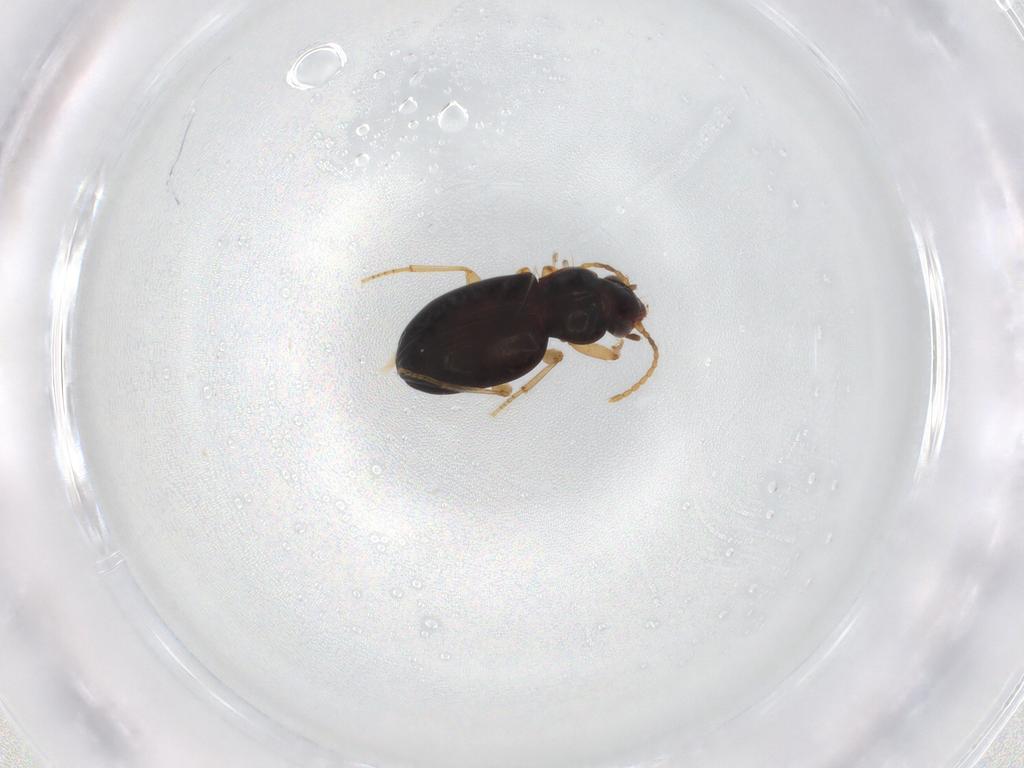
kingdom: Animalia
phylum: Arthropoda
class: Insecta
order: Coleoptera
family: Carabidae
